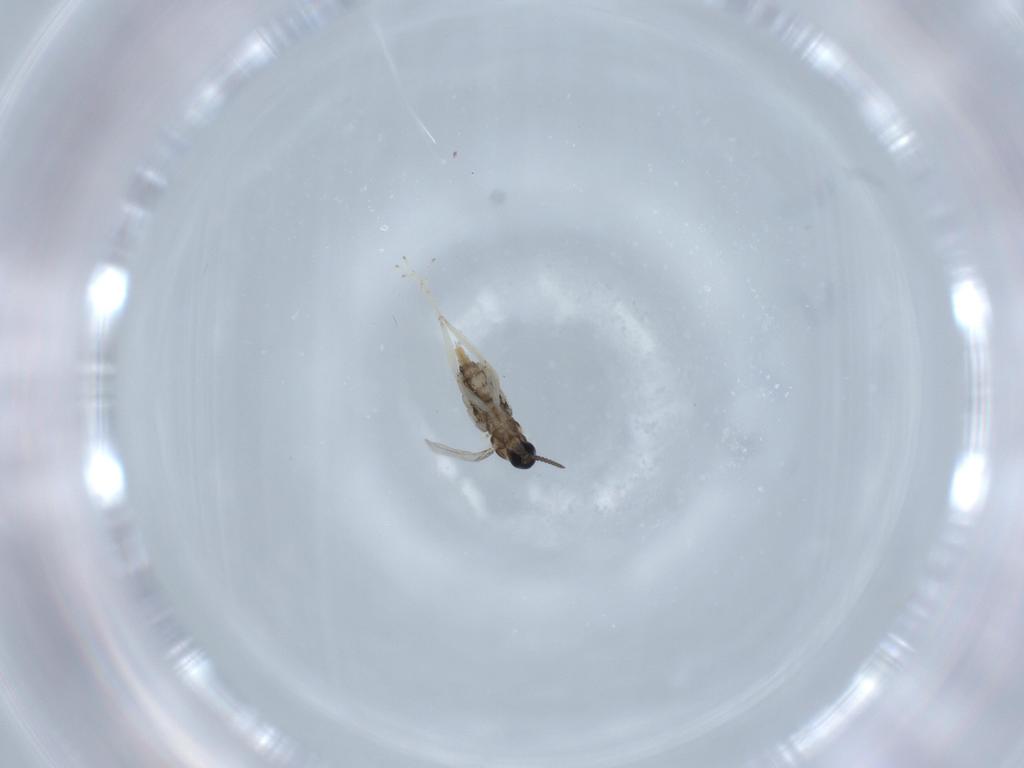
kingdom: Animalia
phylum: Arthropoda
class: Insecta
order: Diptera
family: Cecidomyiidae
